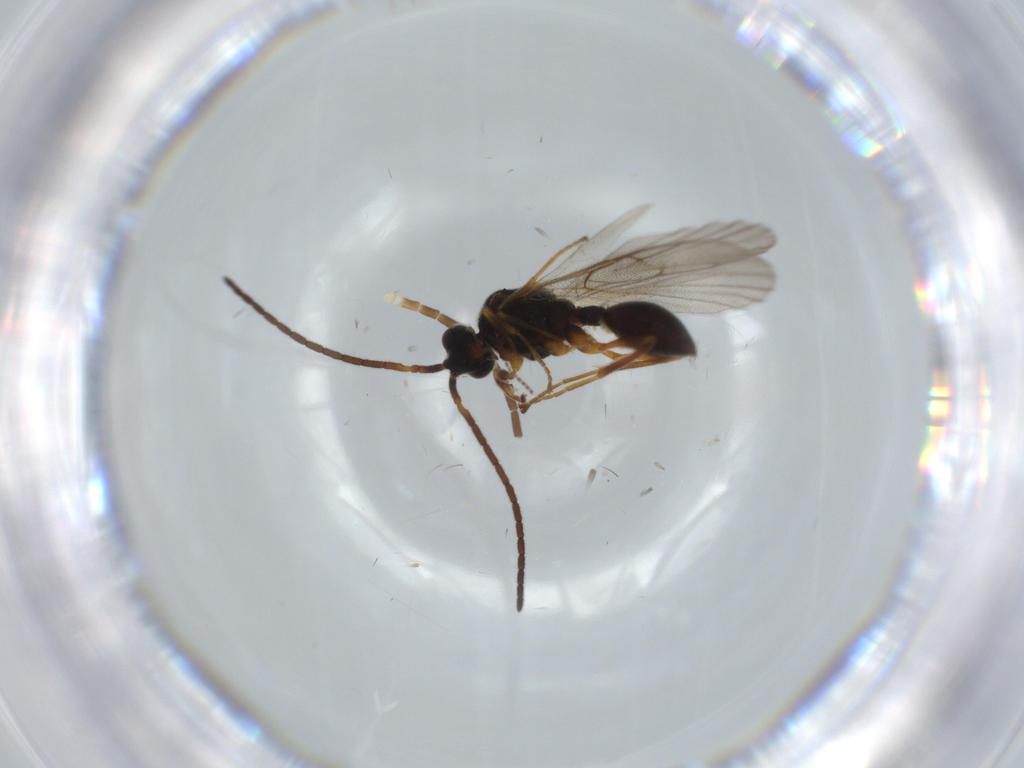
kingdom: Animalia
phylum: Arthropoda
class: Insecta
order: Hymenoptera
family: Diapriidae
